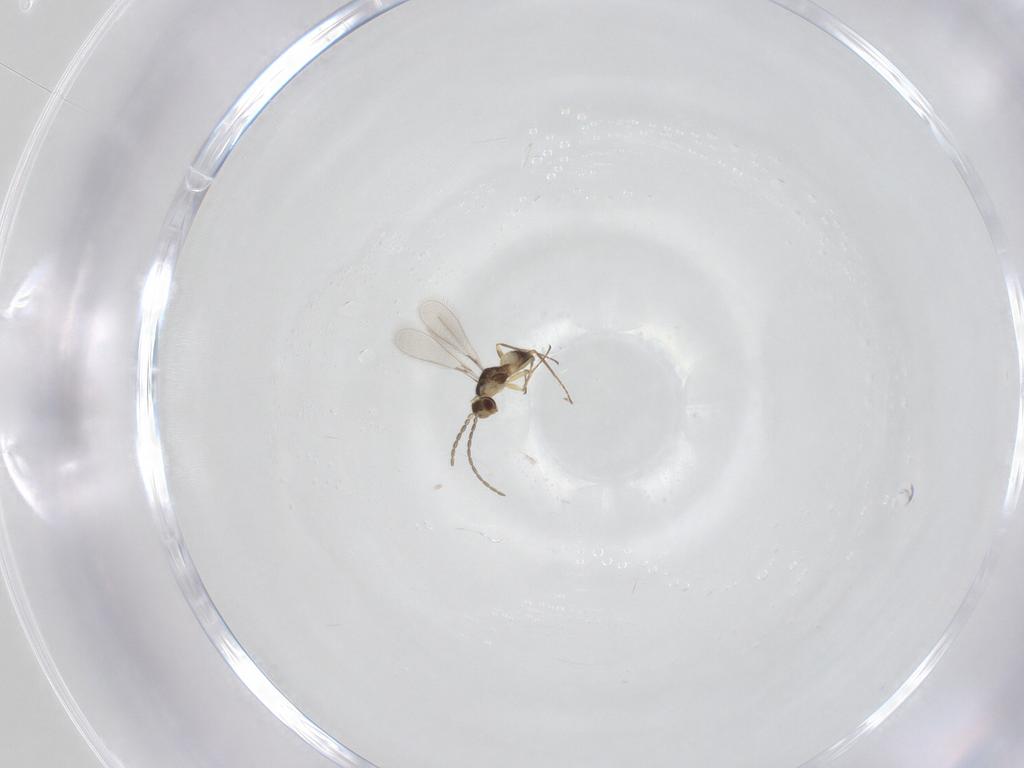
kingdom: Animalia
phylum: Arthropoda
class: Insecta
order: Hymenoptera
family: Mymaridae
